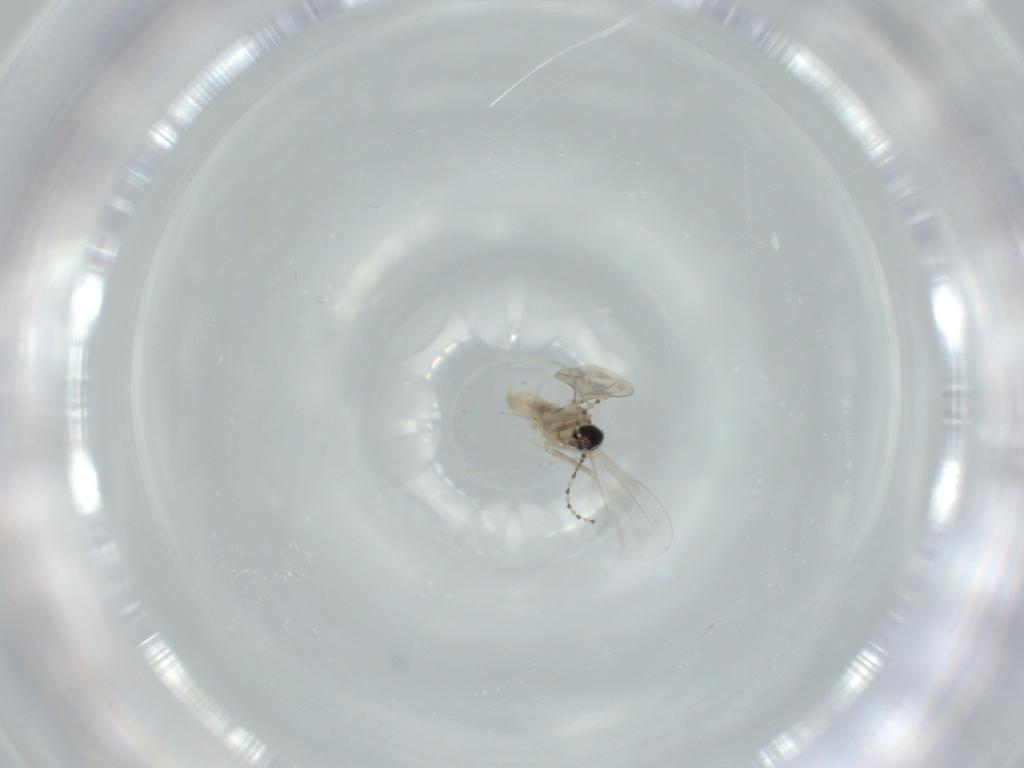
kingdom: Animalia
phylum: Arthropoda
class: Insecta
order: Diptera
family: Cecidomyiidae
